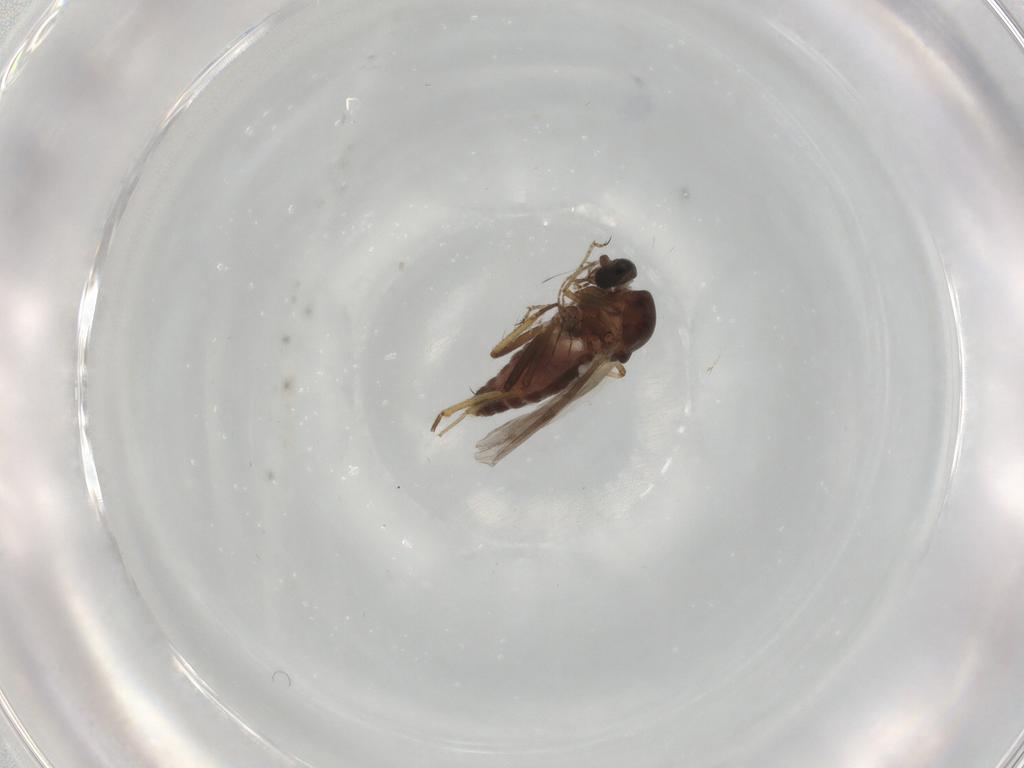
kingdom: Animalia
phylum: Arthropoda
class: Insecta
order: Diptera
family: Ceratopogonidae
